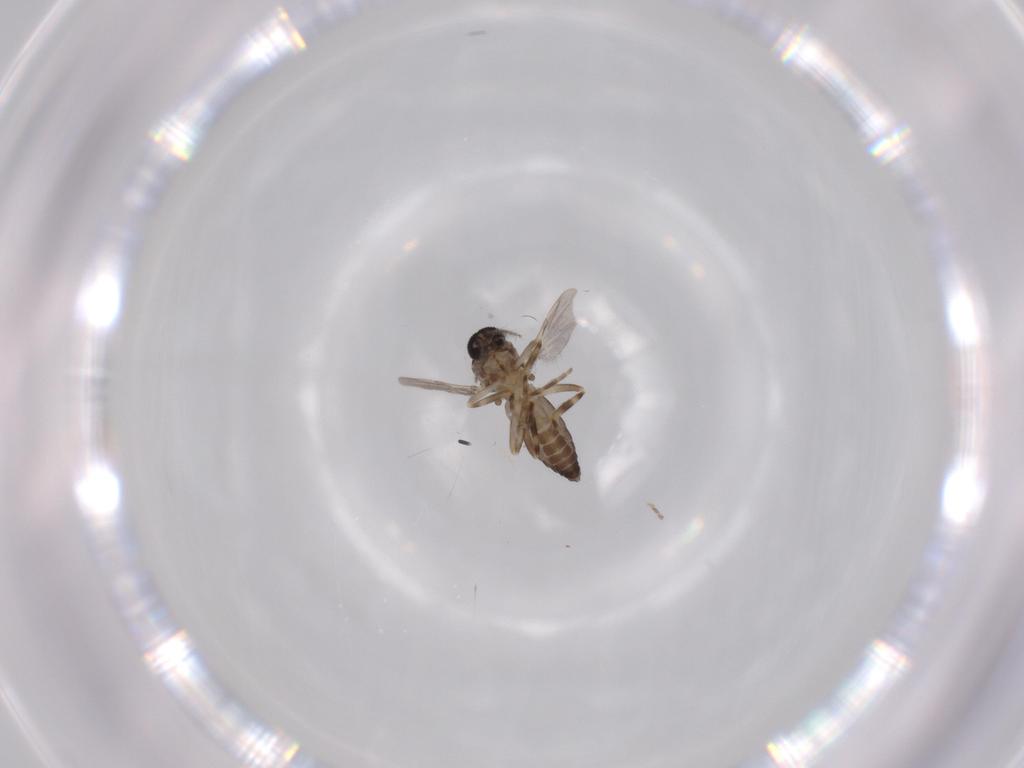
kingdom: Animalia
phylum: Arthropoda
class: Insecta
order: Diptera
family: Ceratopogonidae
